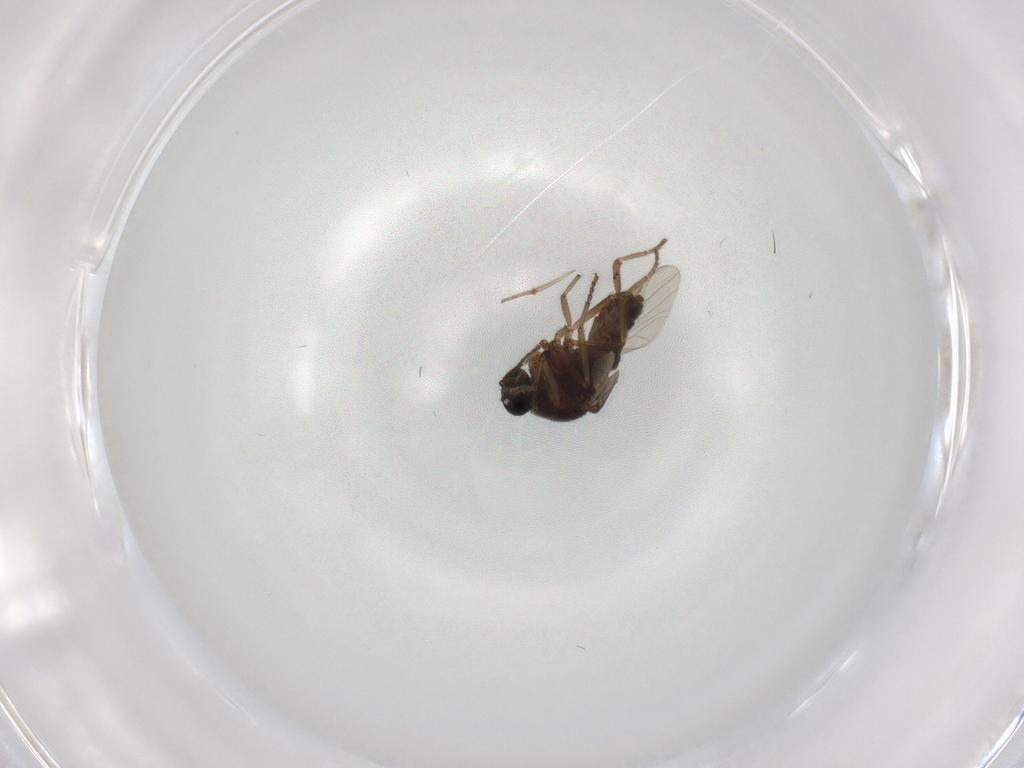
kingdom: Animalia
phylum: Arthropoda
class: Insecta
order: Diptera
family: Ceratopogonidae
